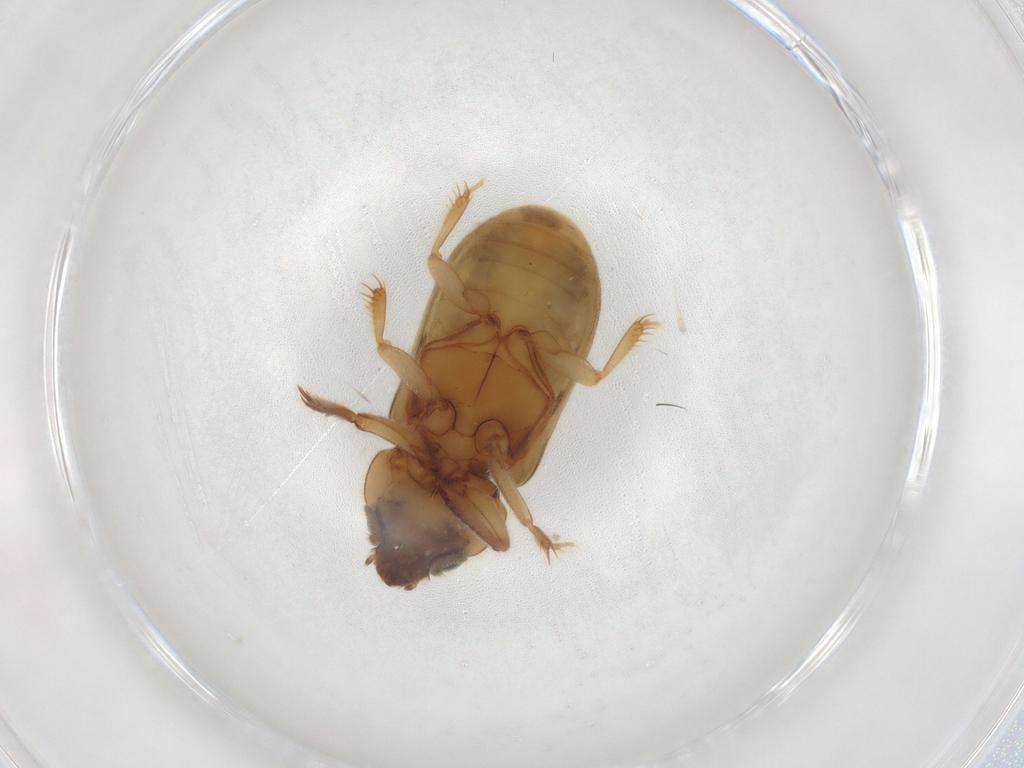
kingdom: Animalia
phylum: Arthropoda
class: Insecta
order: Coleoptera
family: Heteroceridae
